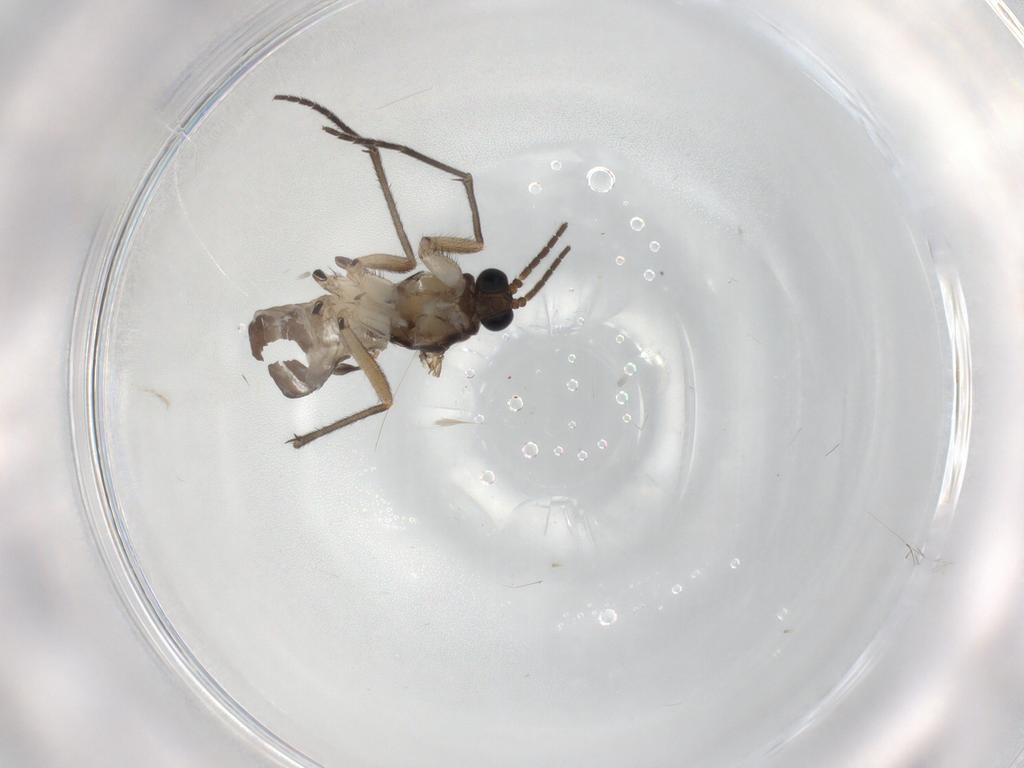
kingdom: Animalia
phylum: Arthropoda
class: Insecta
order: Diptera
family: Sciaridae
